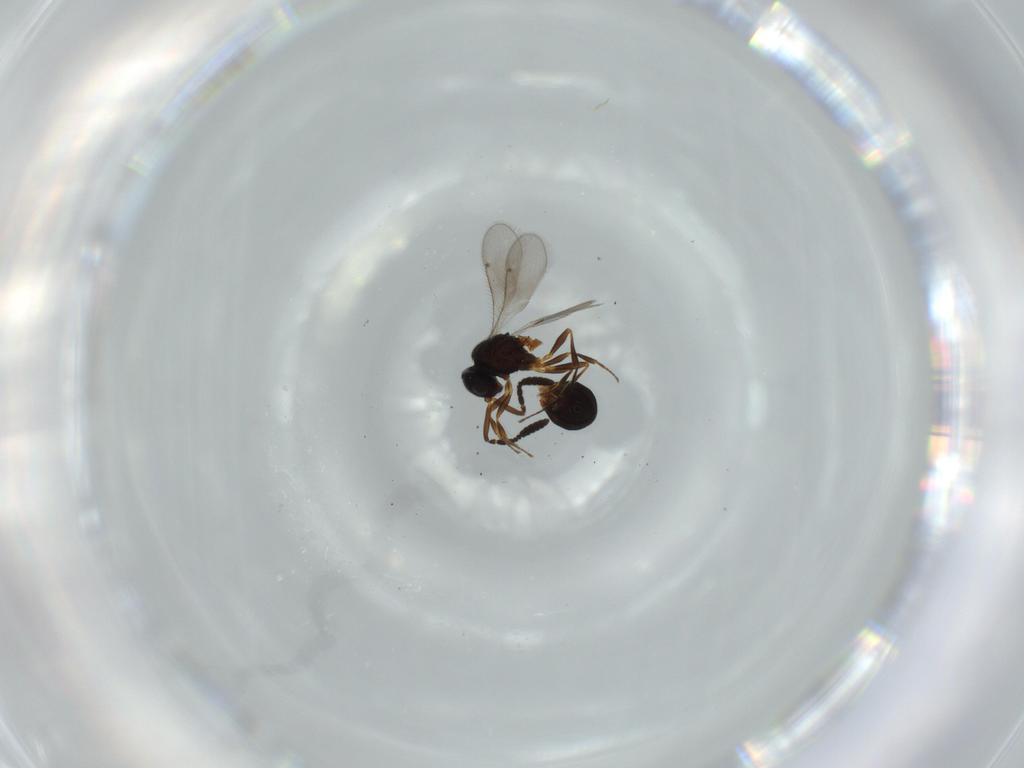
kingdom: Animalia
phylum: Arthropoda
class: Insecta
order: Hymenoptera
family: Scelionidae
